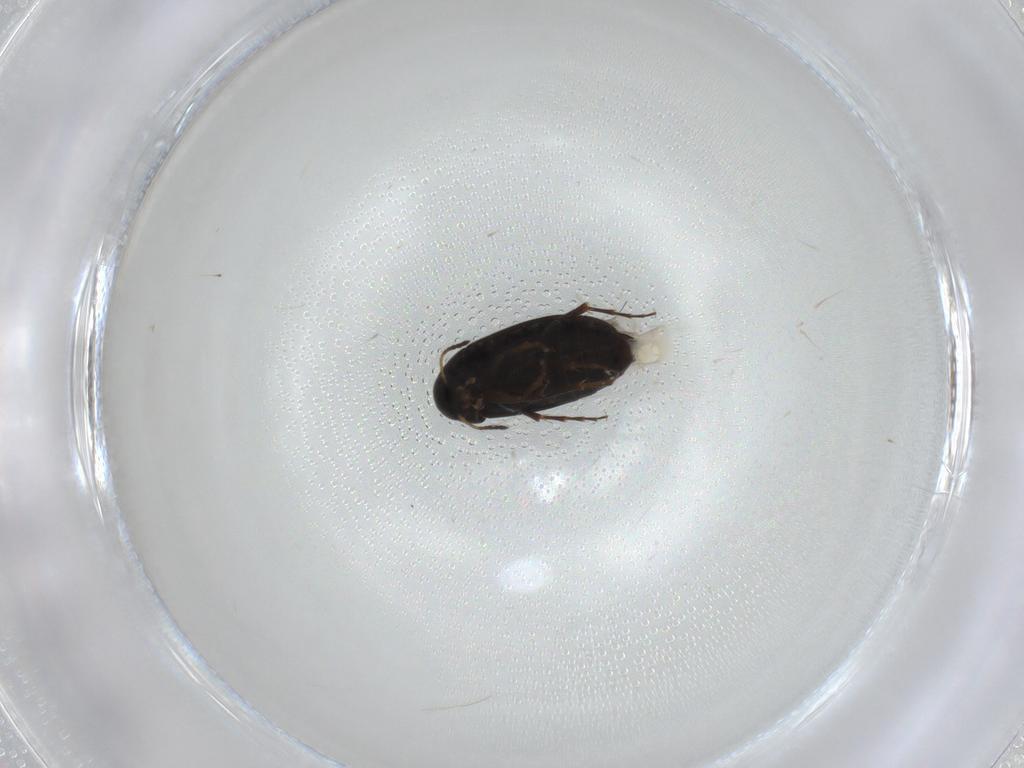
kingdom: Animalia
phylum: Arthropoda
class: Insecta
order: Coleoptera
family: Scraptiidae
